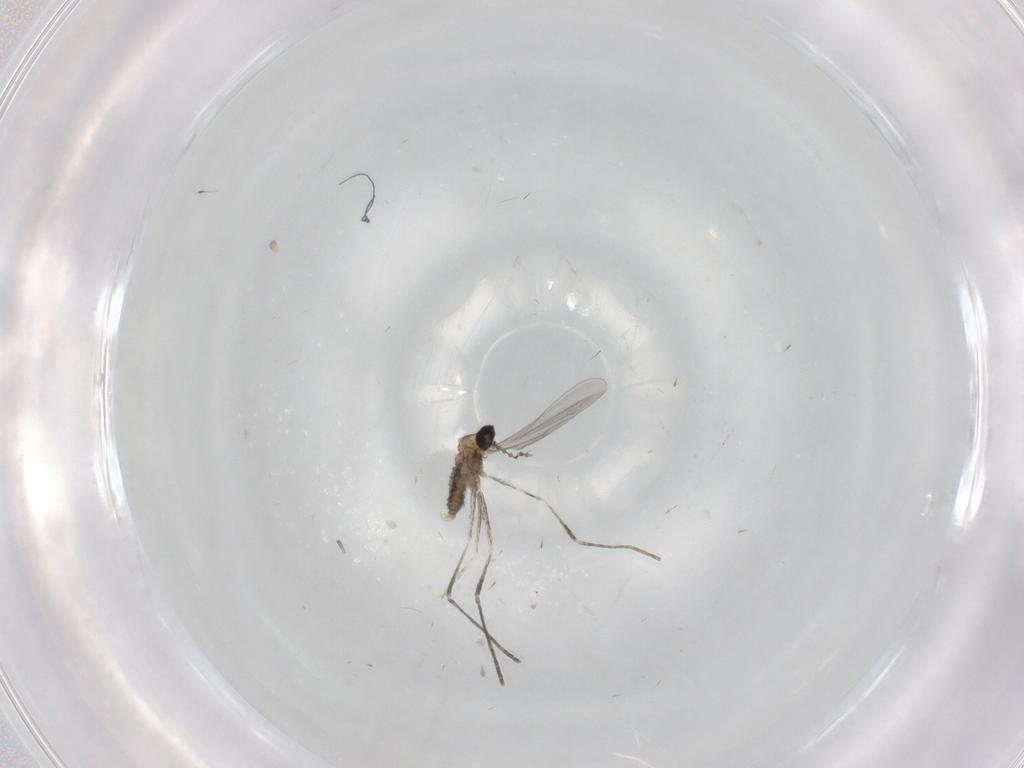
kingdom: Animalia
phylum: Arthropoda
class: Insecta
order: Diptera
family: Cecidomyiidae
